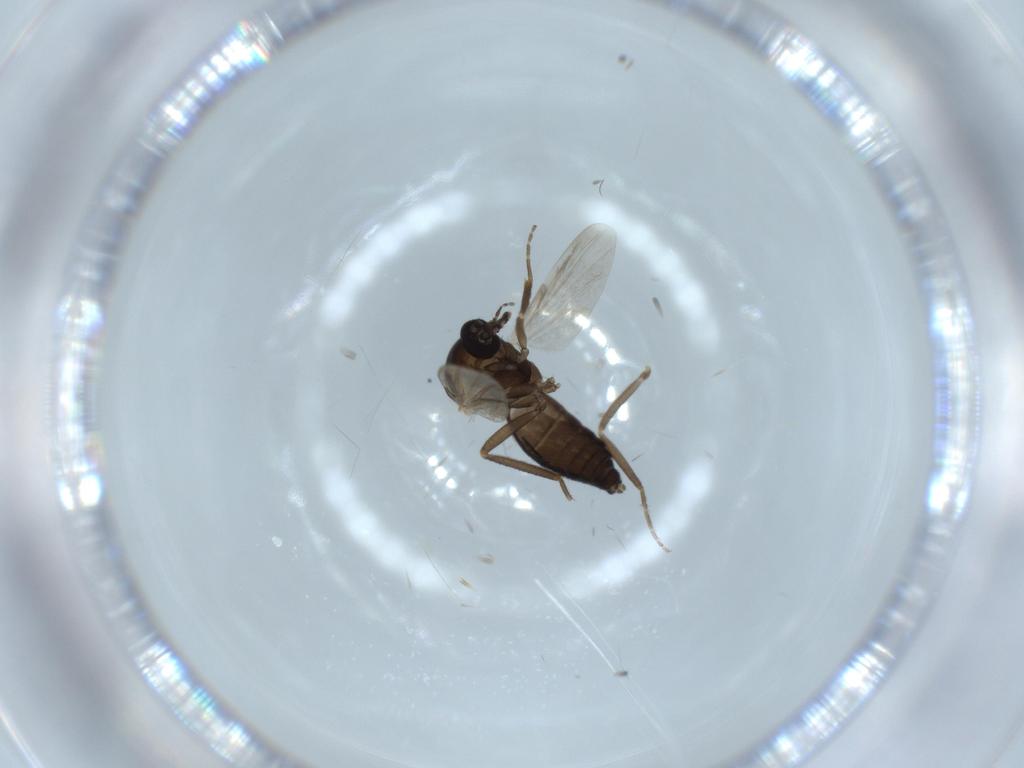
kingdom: Animalia
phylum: Arthropoda
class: Insecta
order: Diptera
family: Ceratopogonidae
